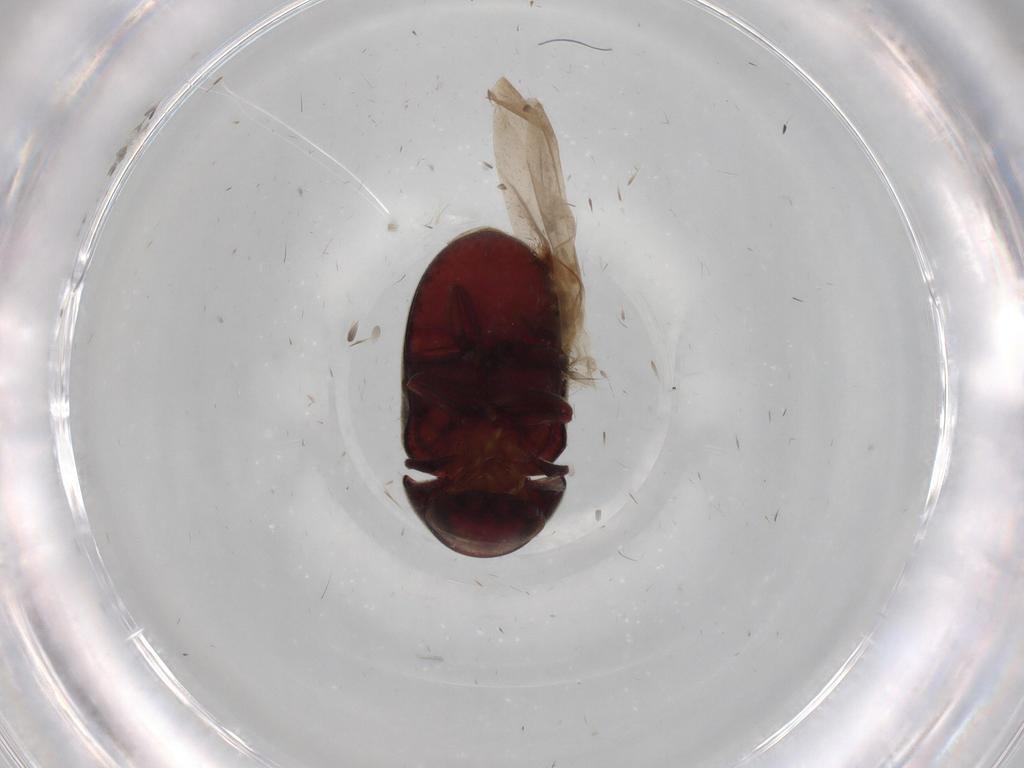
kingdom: Animalia
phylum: Arthropoda
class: Insecta
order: Coleoptera
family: Ptinidae
